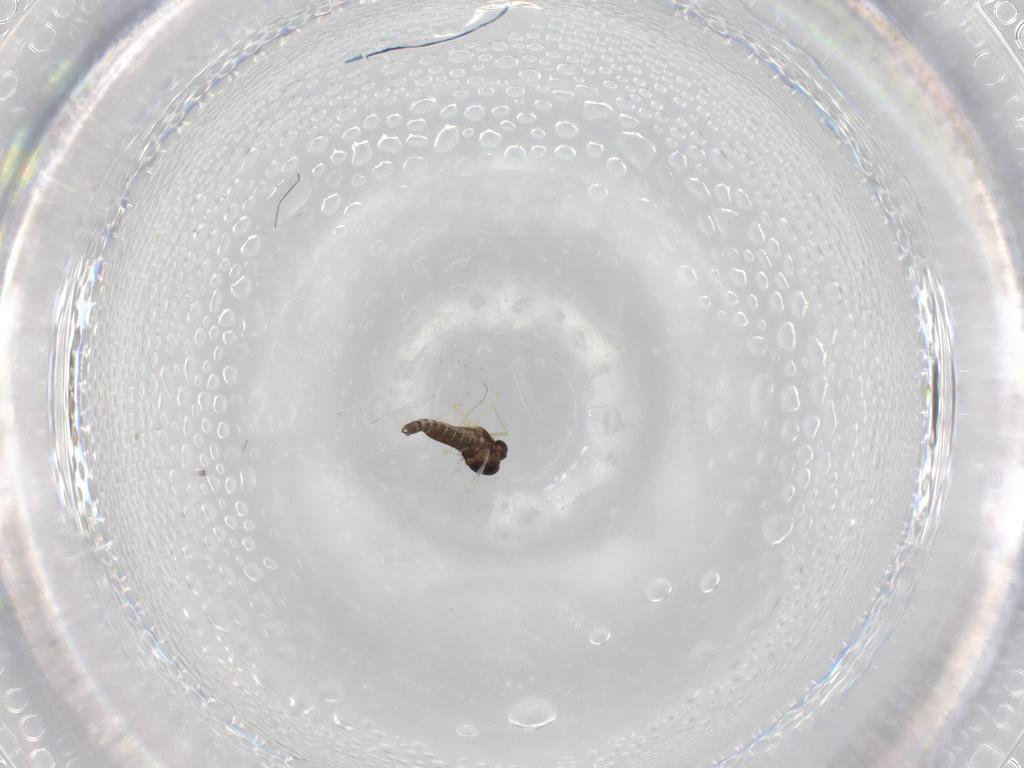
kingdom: Animalia
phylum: Arthropoda
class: Insecta
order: Diptera
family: Chironomidae
